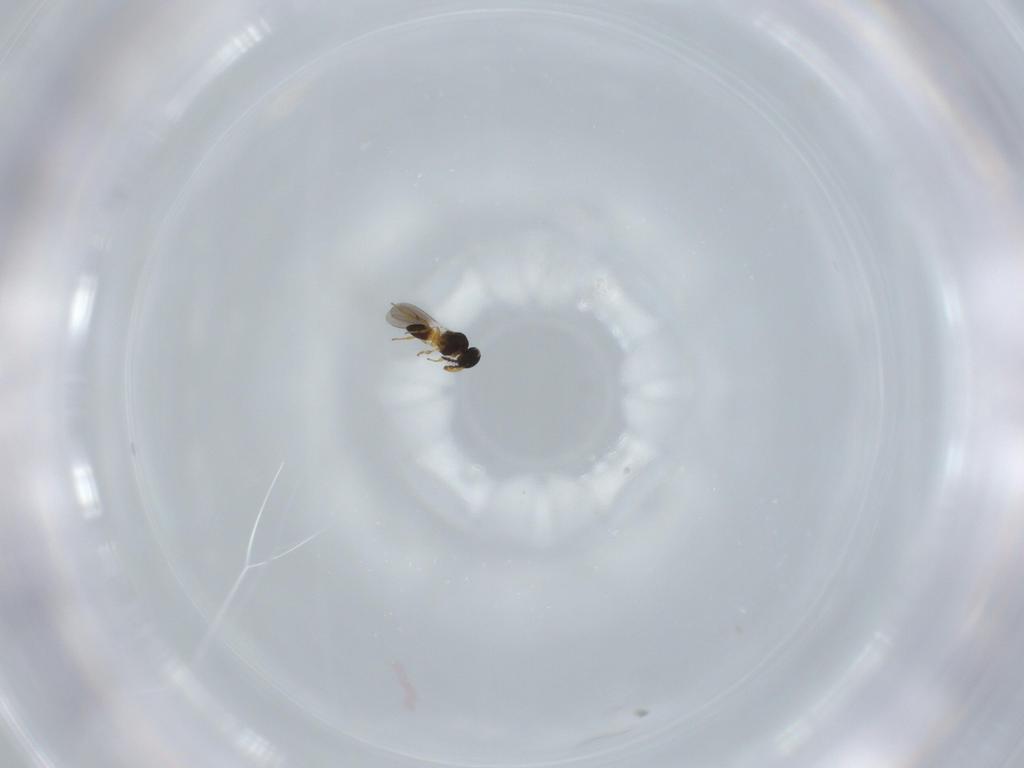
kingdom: Animalia
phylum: Arthropoda
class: Insecta
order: Hymenoptera
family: Platygastridae
